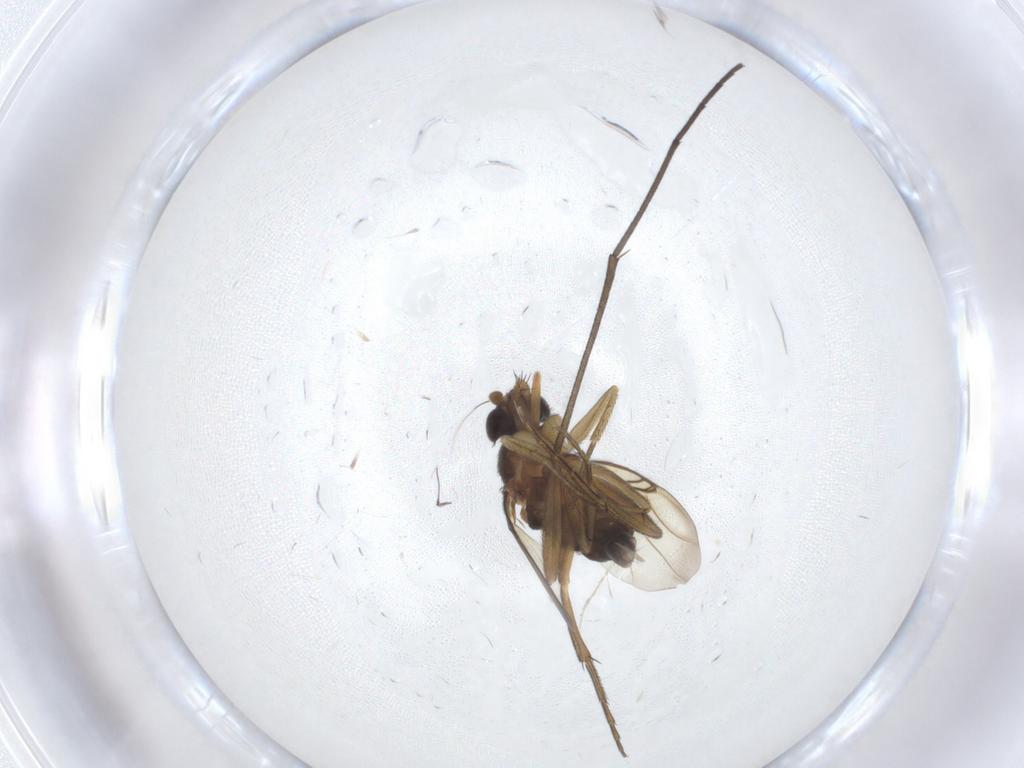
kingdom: Animalia
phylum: Arthropoda
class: Insecta
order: Diptera
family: Phoridae
